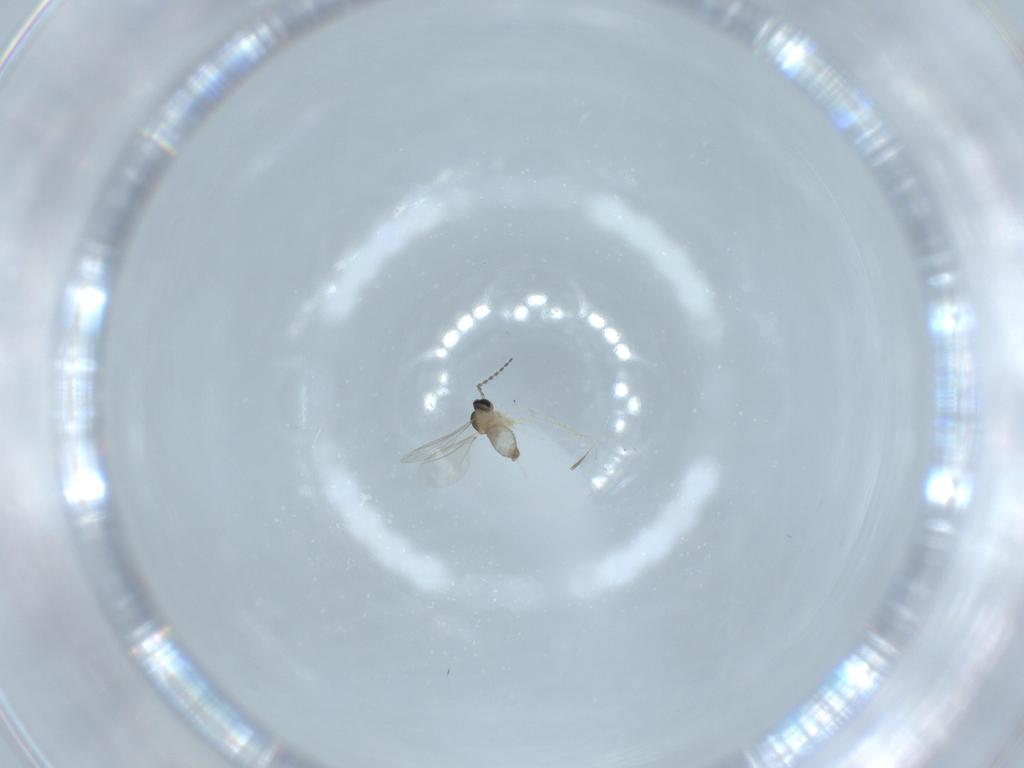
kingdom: Animalia
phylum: Arthropoda
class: Insecta
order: Diptera
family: Cecidomyiidae
